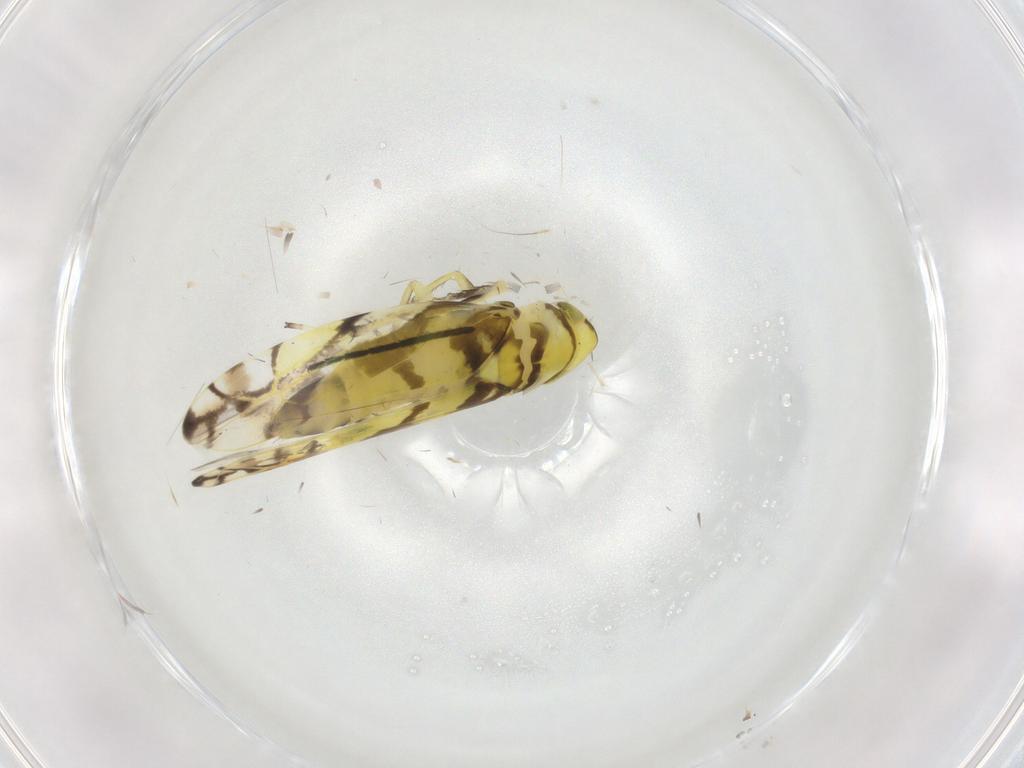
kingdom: Animalia
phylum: Arthropoda
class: Insecta
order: Hemiptera
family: Cicadellidae
